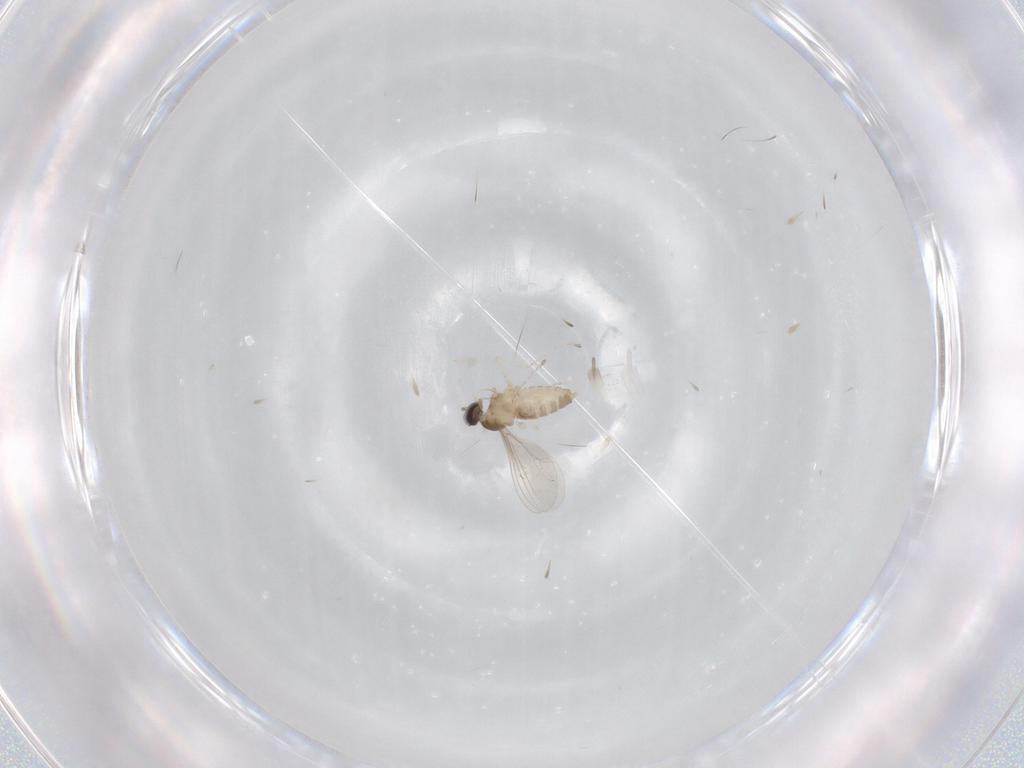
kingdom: Animalia
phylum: Arthropoda
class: Insecta
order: Diptera
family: Cecidomyiidae
